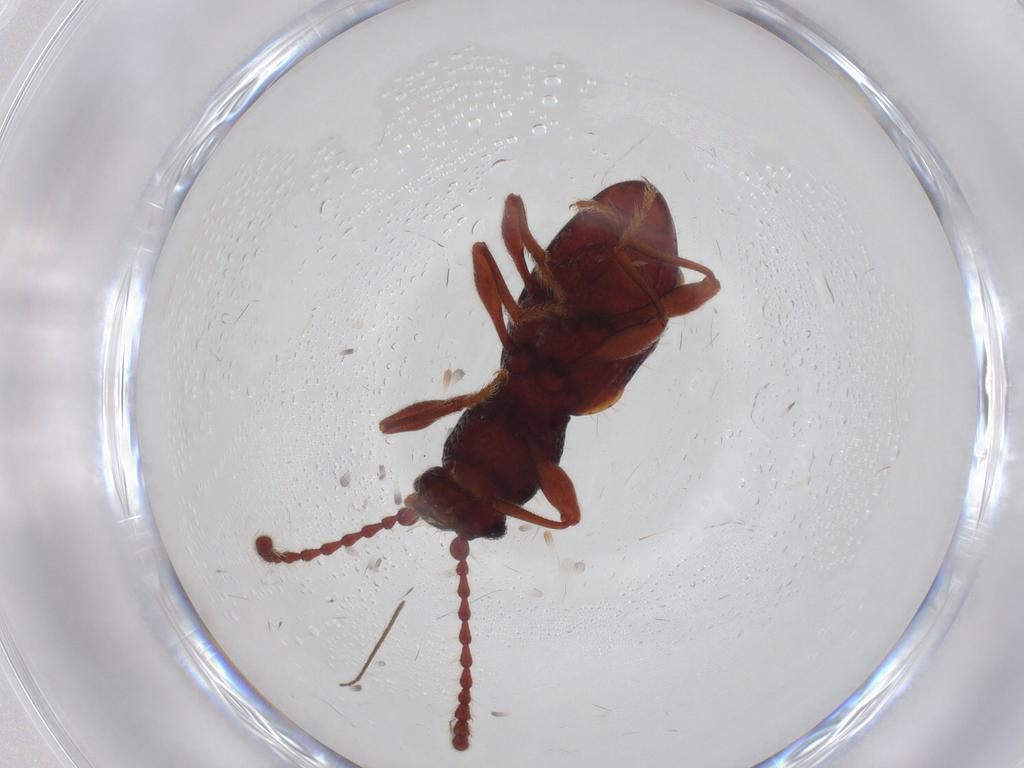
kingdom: Animalia
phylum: Arthropoda
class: Insecta
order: Coleoptera
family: Ptinidae
